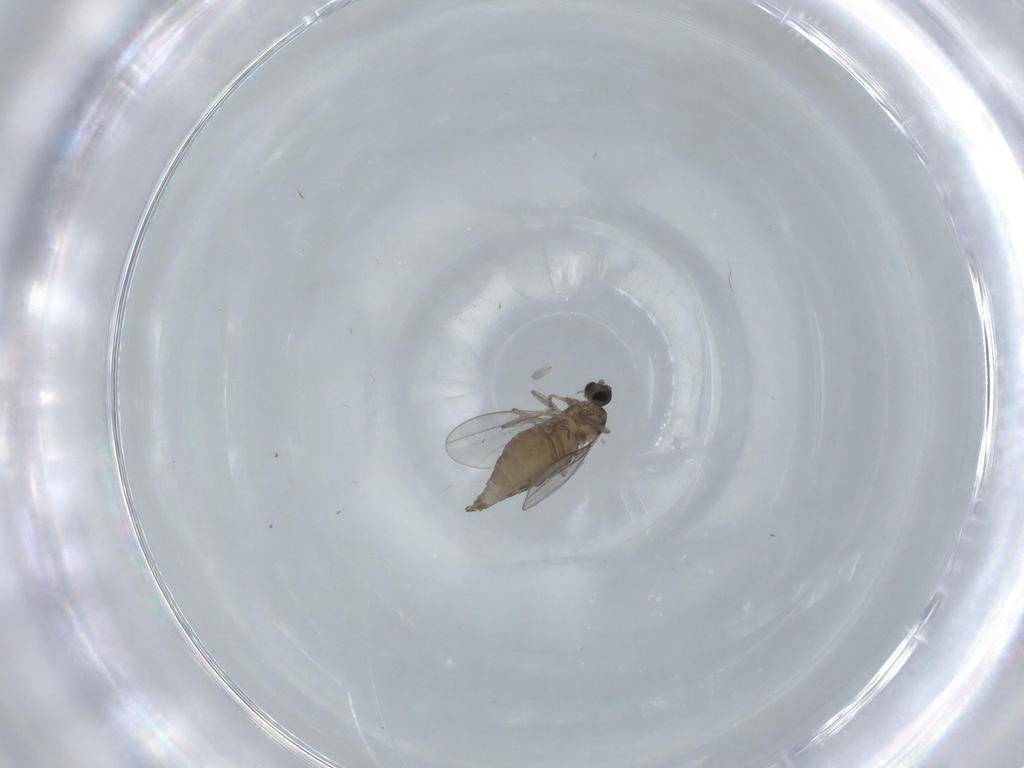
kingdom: Animalia
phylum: Arthropoda
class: Insecta
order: Diptera
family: Cecidomyiidae
